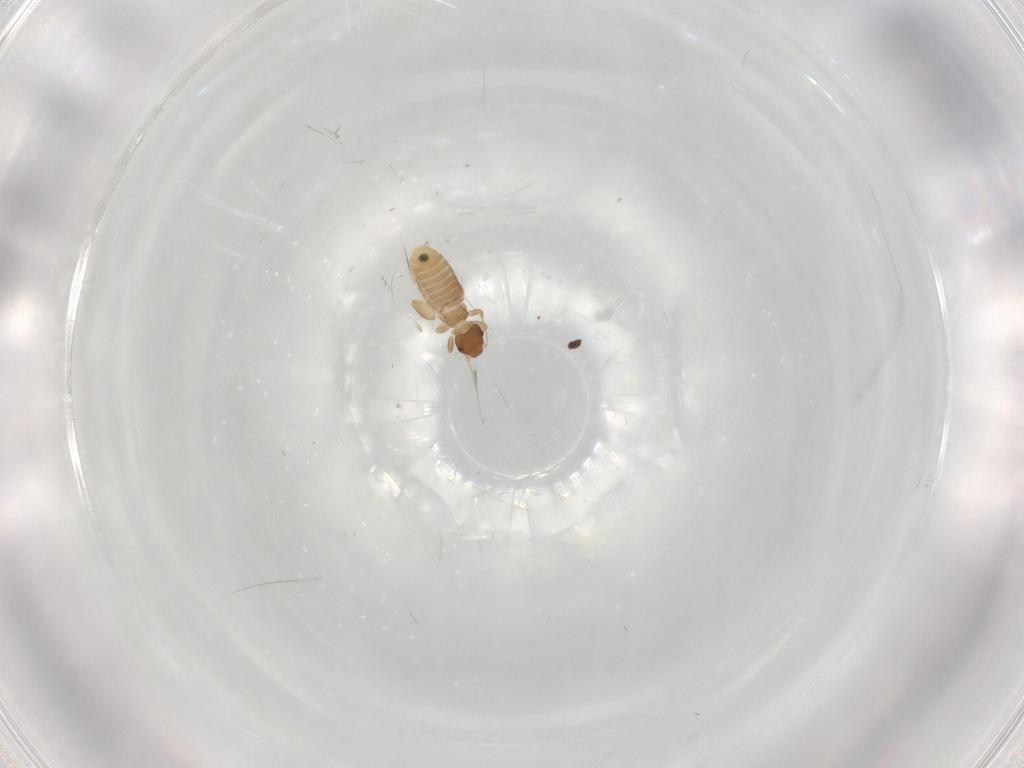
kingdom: Animalia
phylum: Arthropoda
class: Insecta
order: Psocodea
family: Liposcelididae
